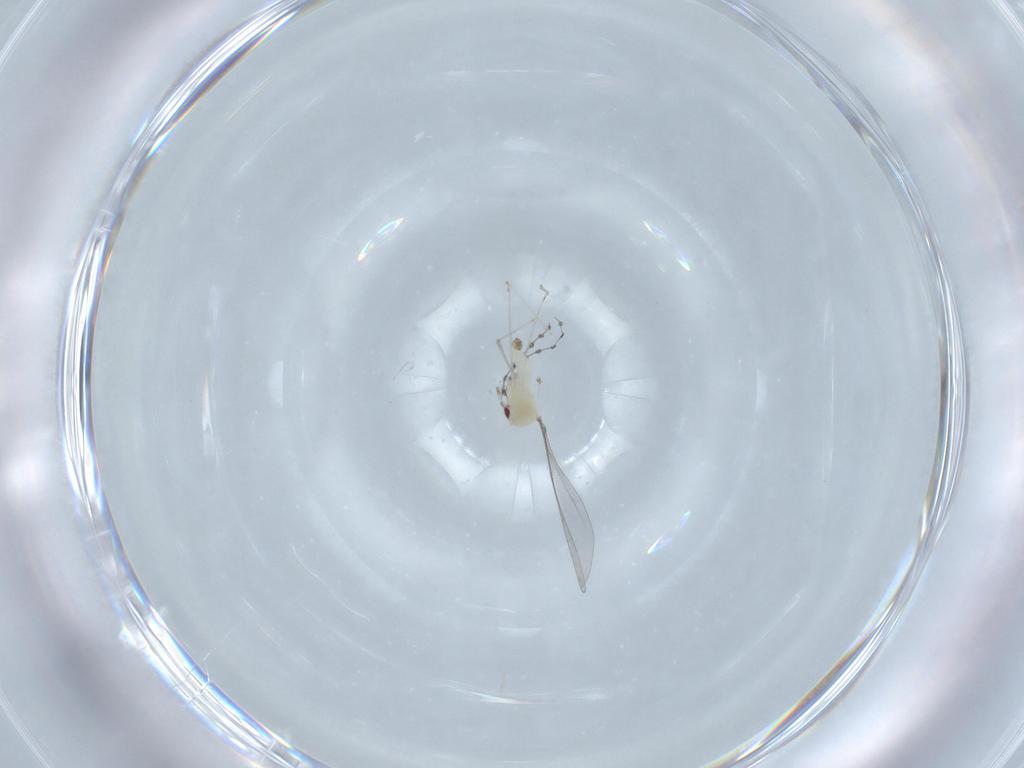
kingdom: Animalia
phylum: Arthropoda
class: Insecta
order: Diptera
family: Cecidomyiidae
